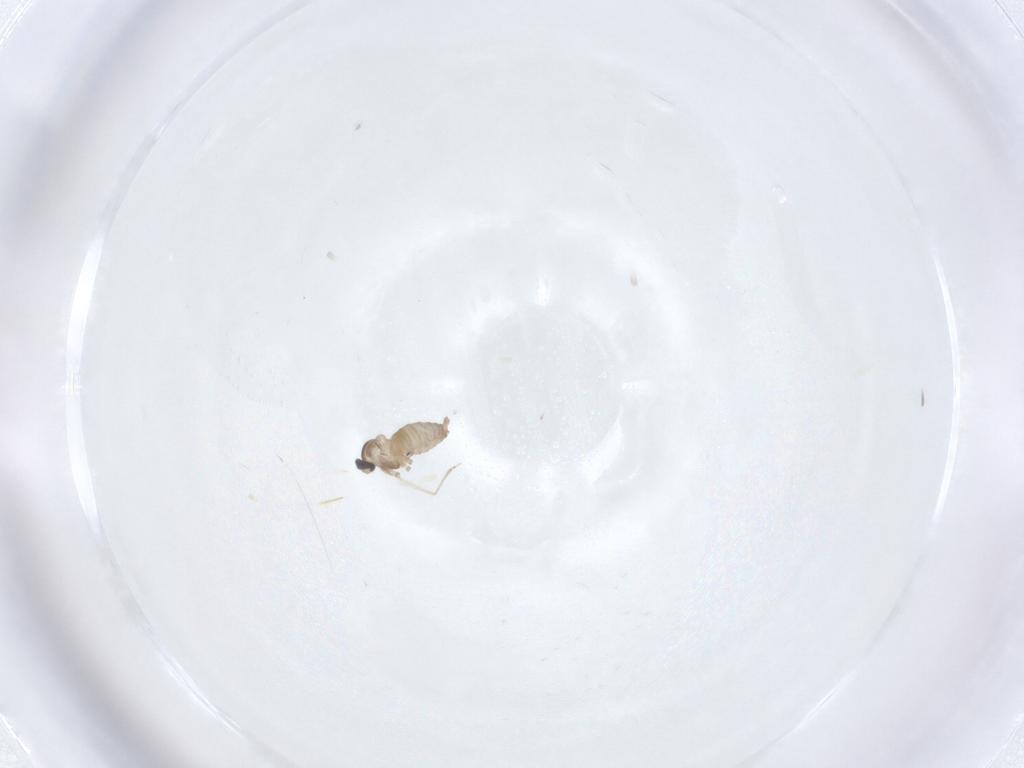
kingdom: Animalia
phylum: Arthropoda
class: Insecta
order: Diptera
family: Cecidomyiidae
